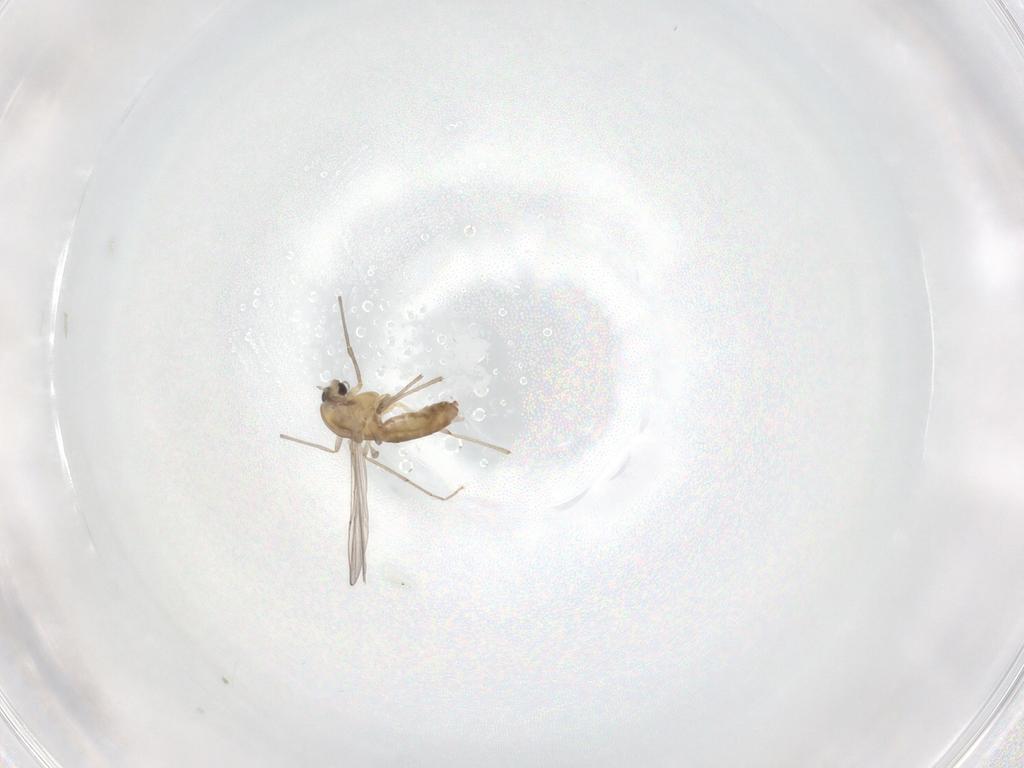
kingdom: Animalia
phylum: Arthropoda
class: Insecta
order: Diptera
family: Chironomidae
